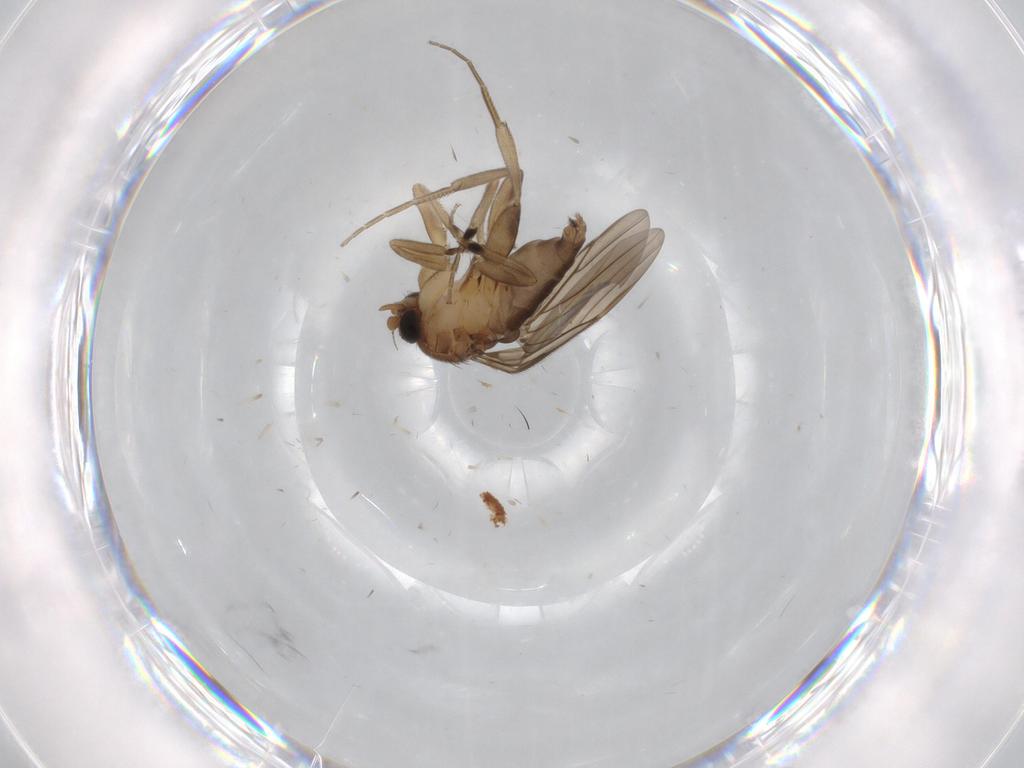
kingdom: Animalia
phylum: Arthropoda
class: Insecta
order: Diptera
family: Phoridae
